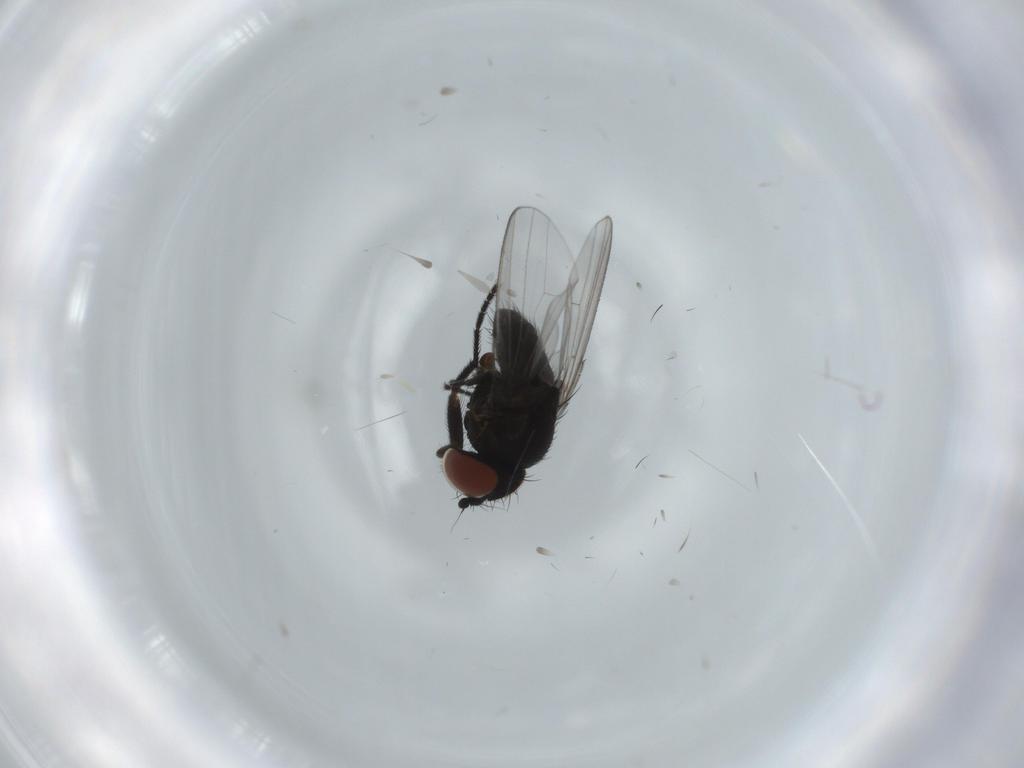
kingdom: Animalia
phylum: Arthropoda
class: Insecta
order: Diptera
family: Milichiidae
